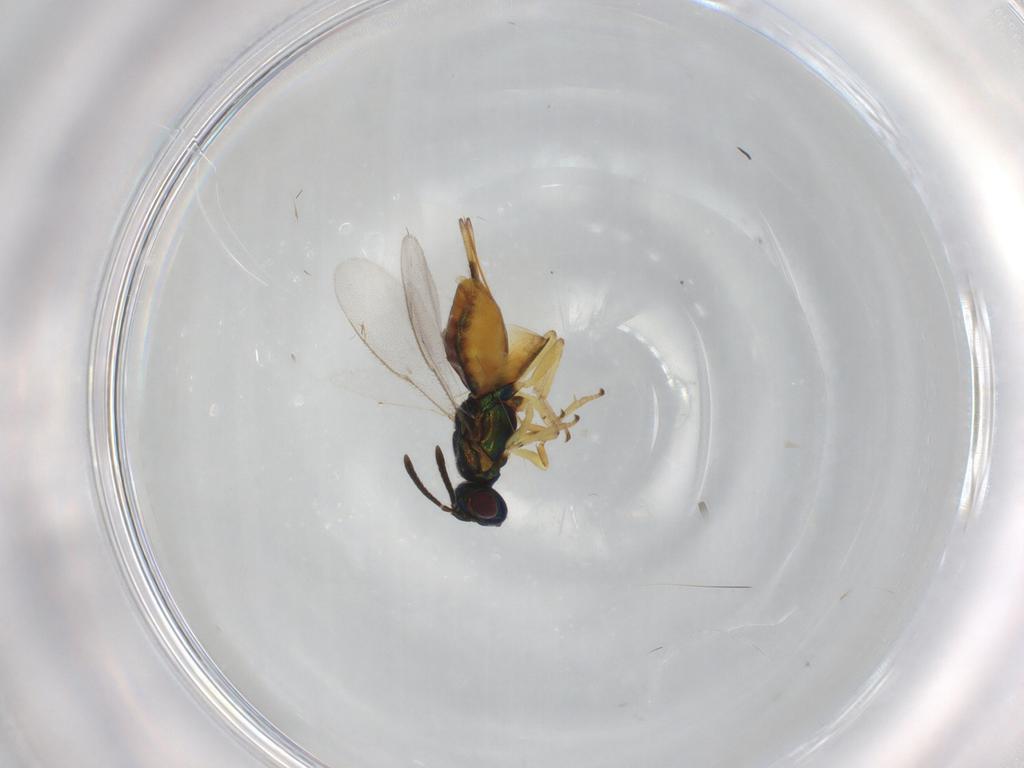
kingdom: Animalia
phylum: Arthropoda
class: Insecta
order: Hymenoptera
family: Eupelmidae
